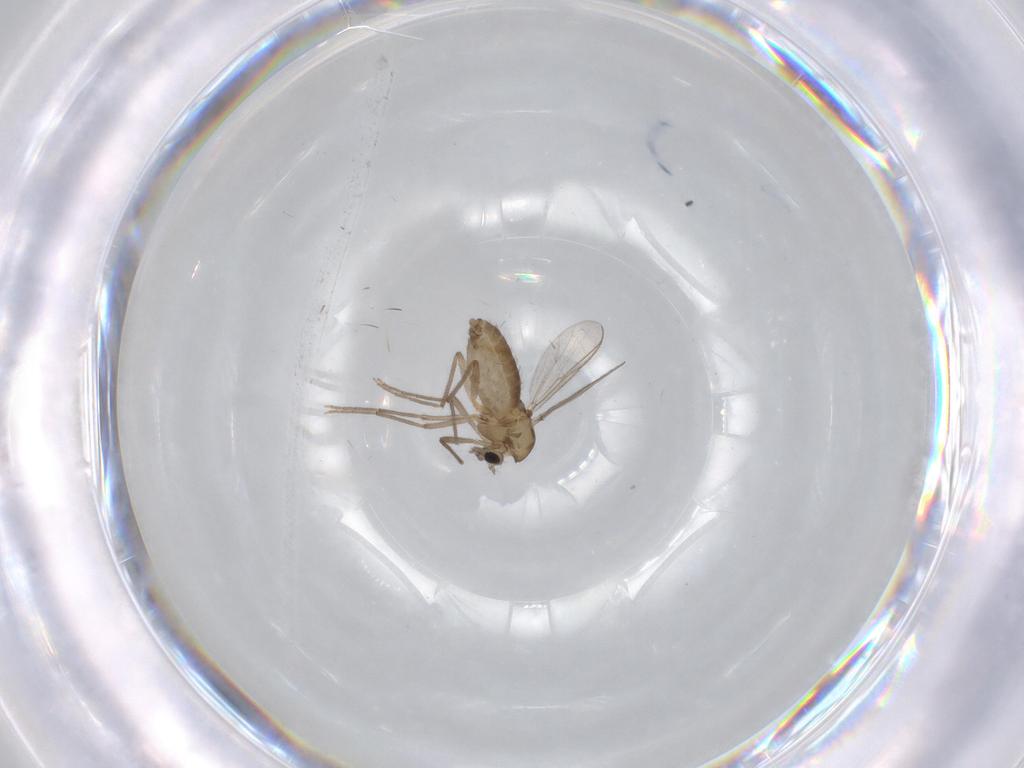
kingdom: Animalia
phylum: Arthropoda
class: Insecta
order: Diptera
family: Chironomidae
